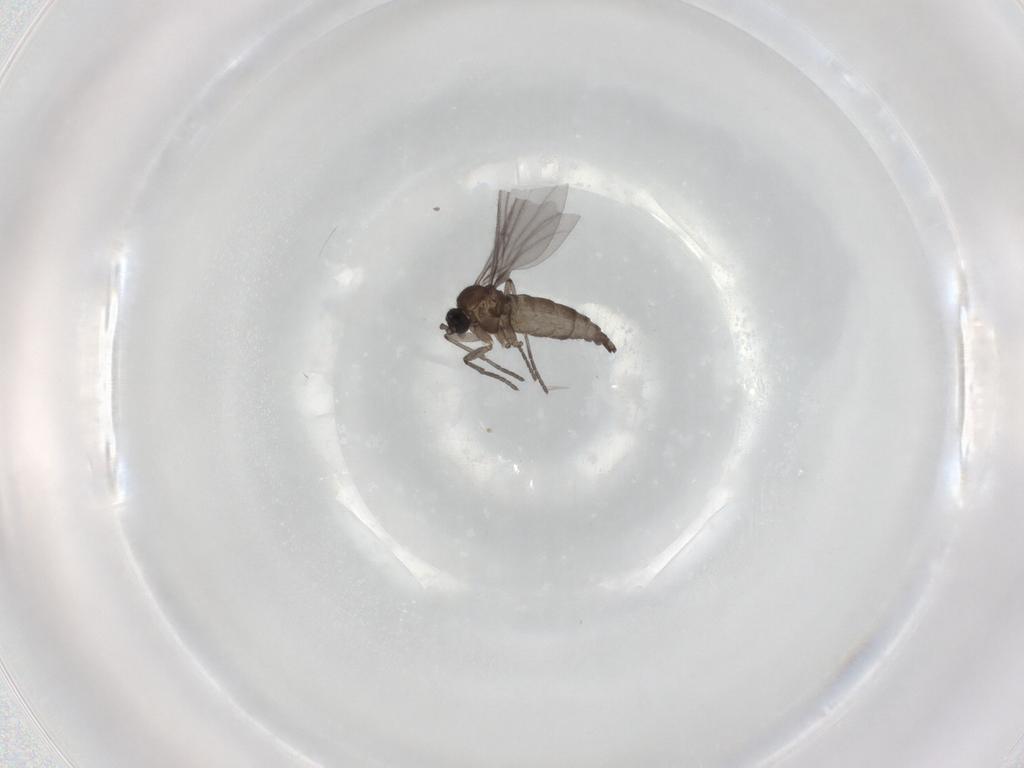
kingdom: Animalia
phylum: Arthropoda
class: Insecta
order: Diptera
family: Sciaridae
